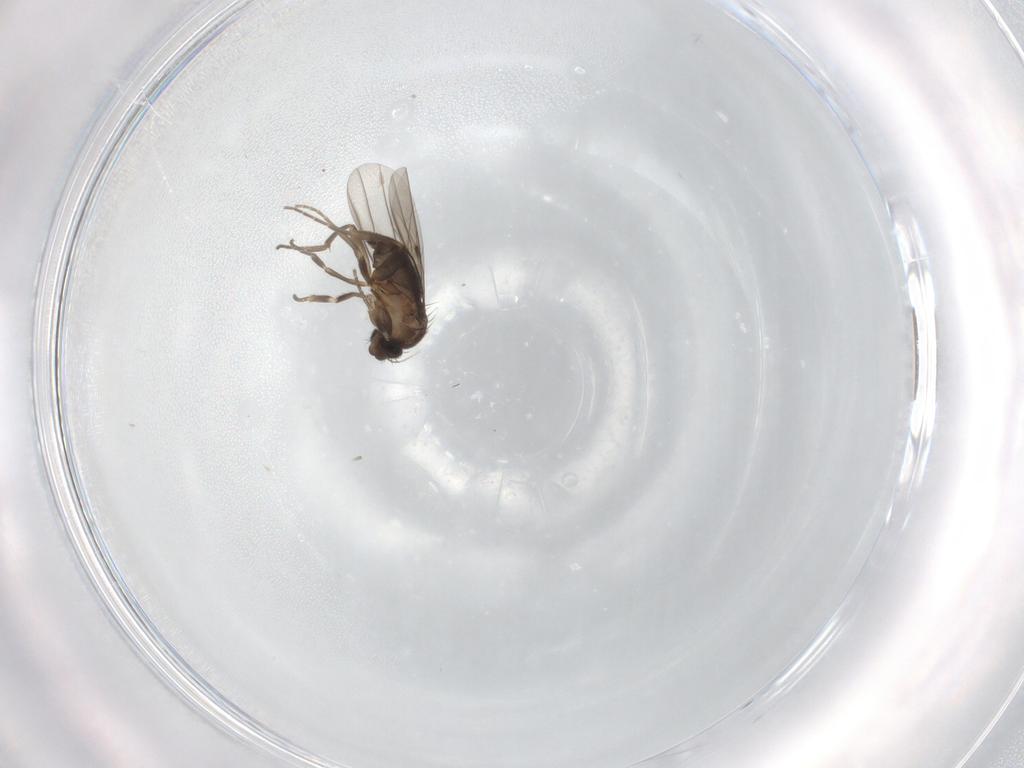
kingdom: Animalia
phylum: Arthropoda
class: Insecta
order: Diptera
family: Phoridae
